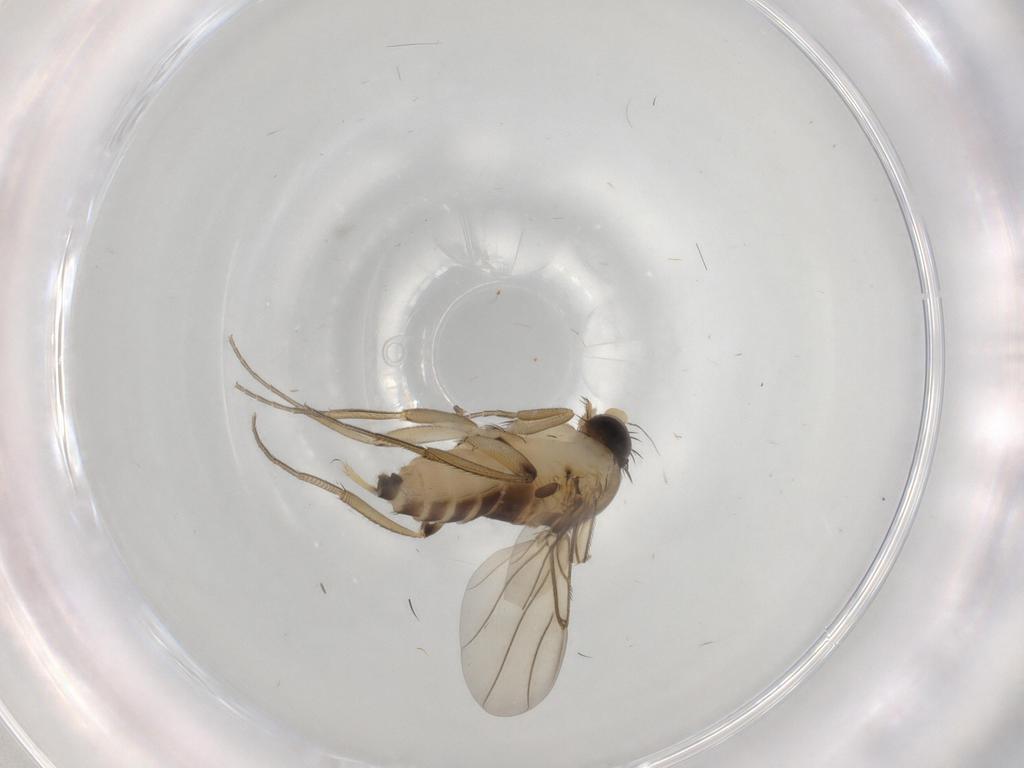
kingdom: Animalia
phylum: Arthropoda
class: Insecta
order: Diptera
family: Phoridae
